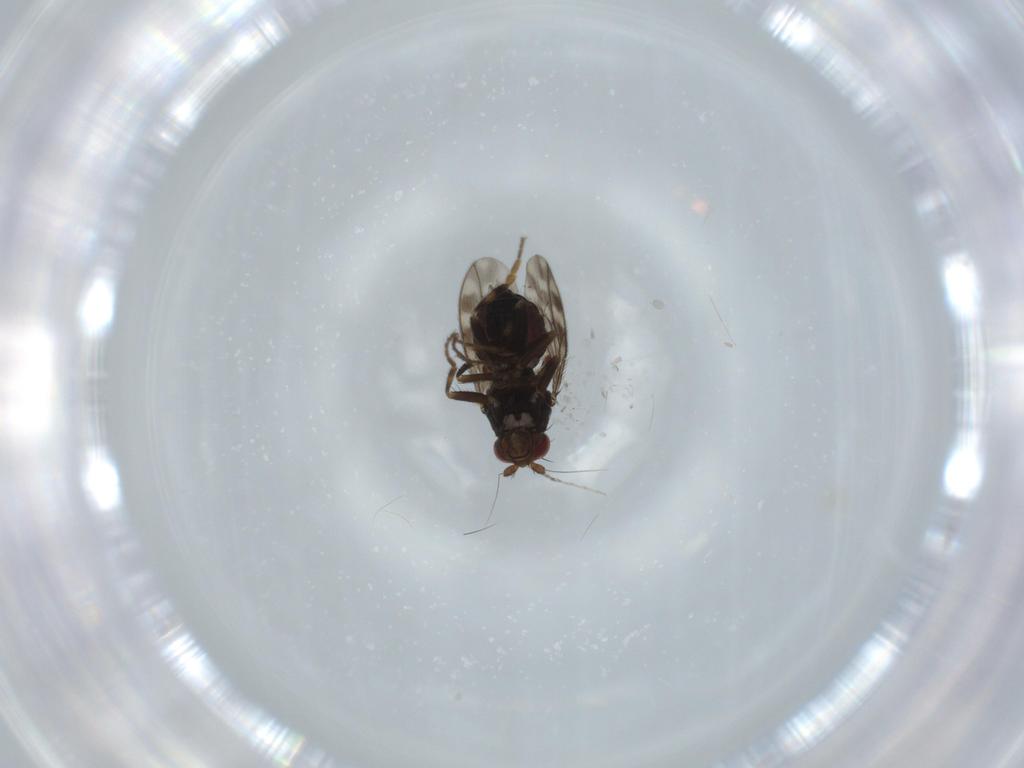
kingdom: Animalia
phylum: Arthropoda
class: Insecta
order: Diptera
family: Sphaeroceridae
